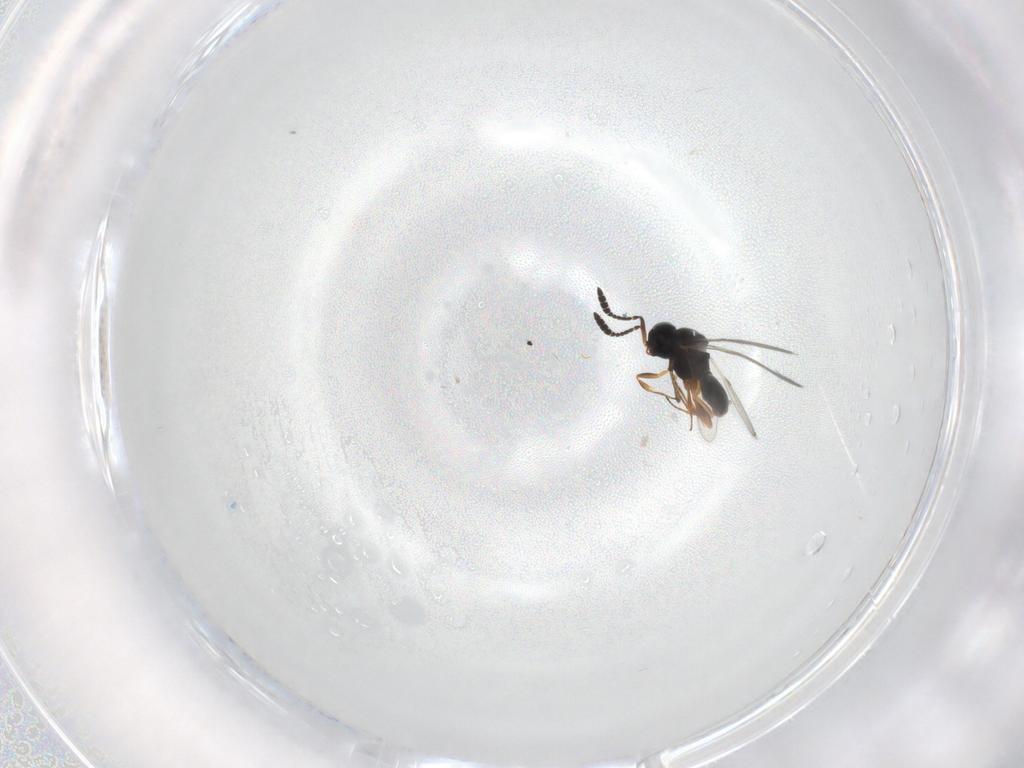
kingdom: Animalia
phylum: Arthropoda
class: Insecta
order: Hymenoptera
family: Scelionidae
